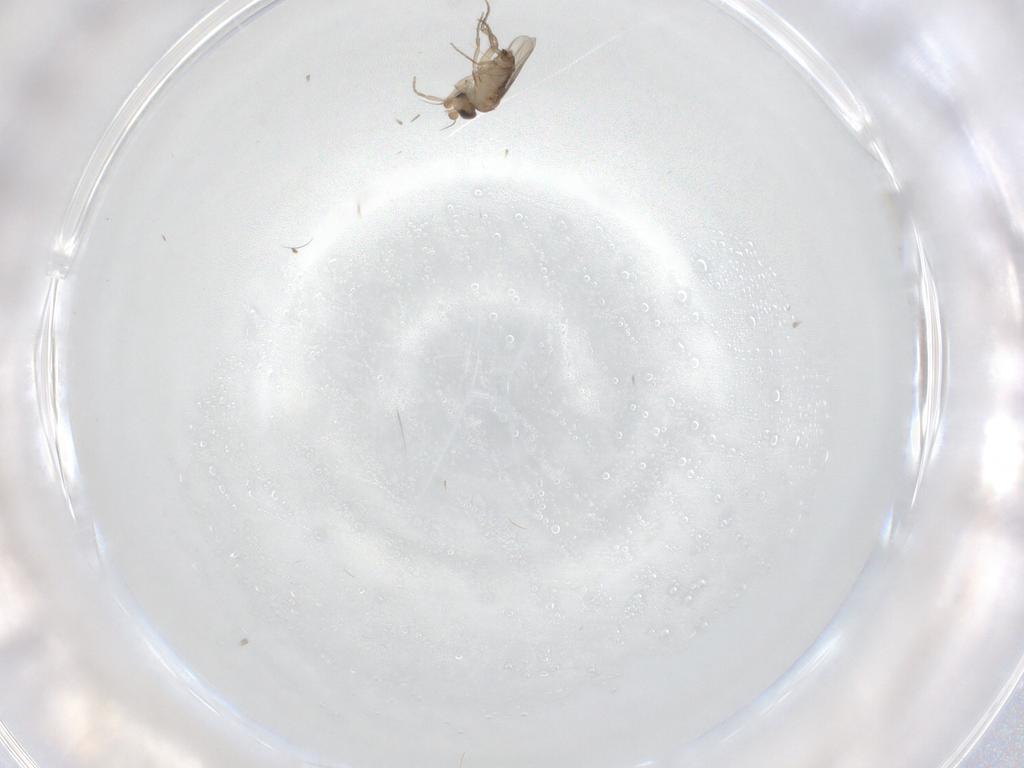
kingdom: Animalia
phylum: Arthropoda
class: Insecta
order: Diptera
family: Phoridae
